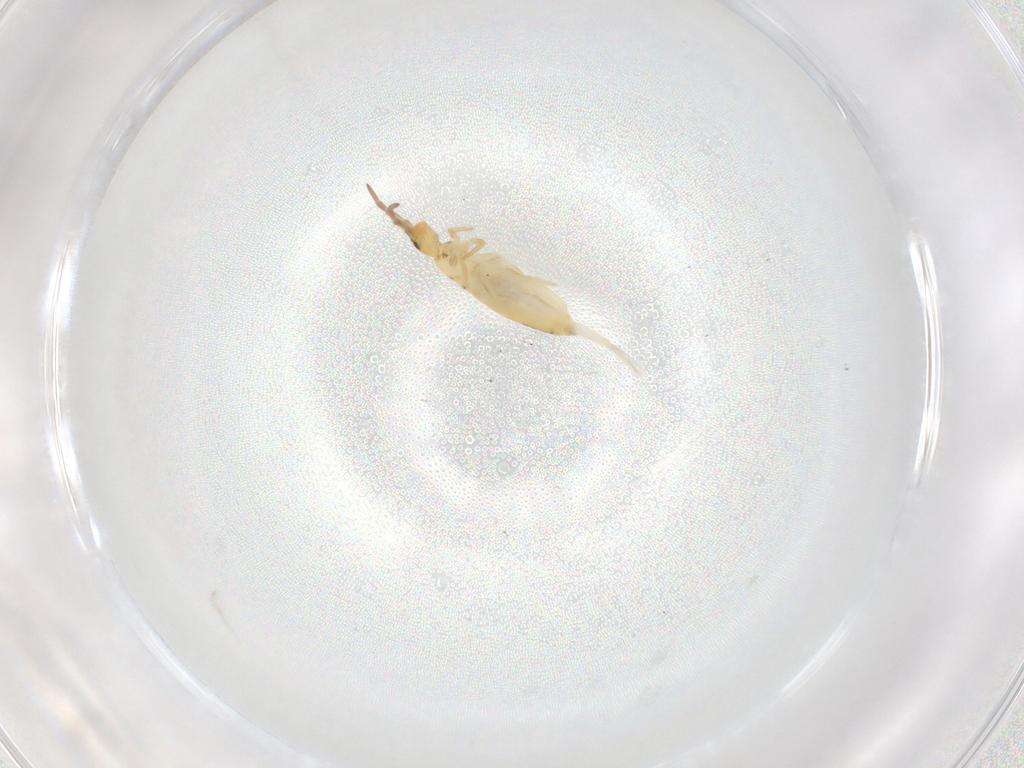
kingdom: Animalia
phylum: Arthropoda
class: Collembola
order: Entomobryomorpha
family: Entomobryidae
